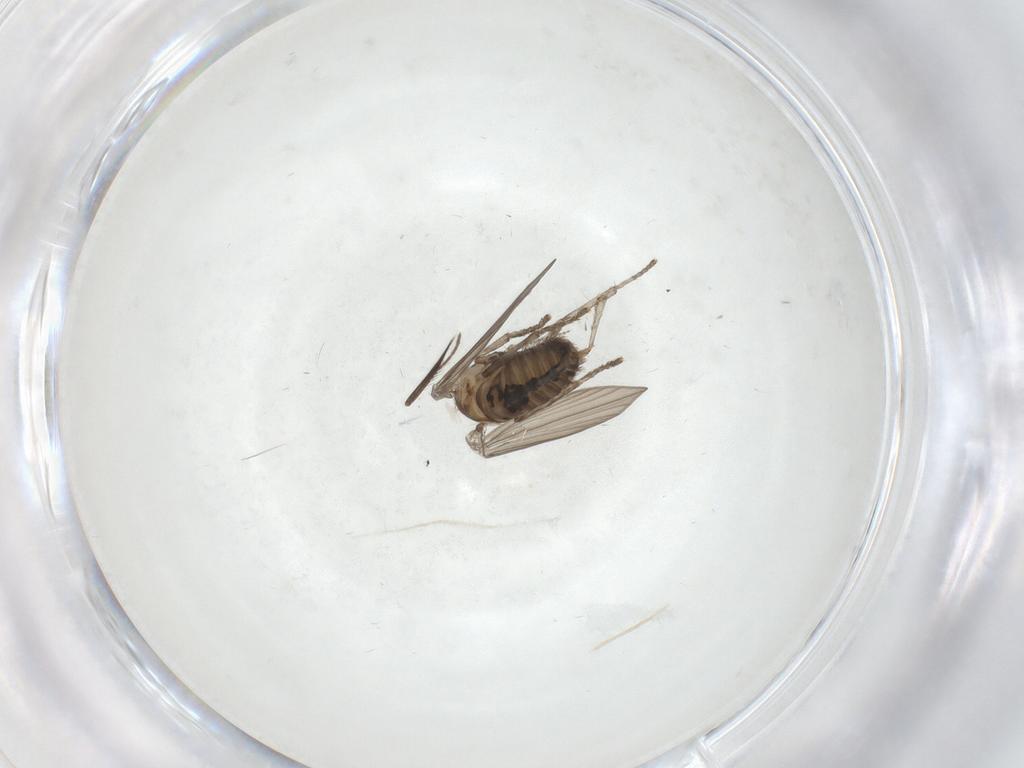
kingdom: Animalia
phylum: Arthropoda
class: Insecta
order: Diptera
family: Psychodidae
